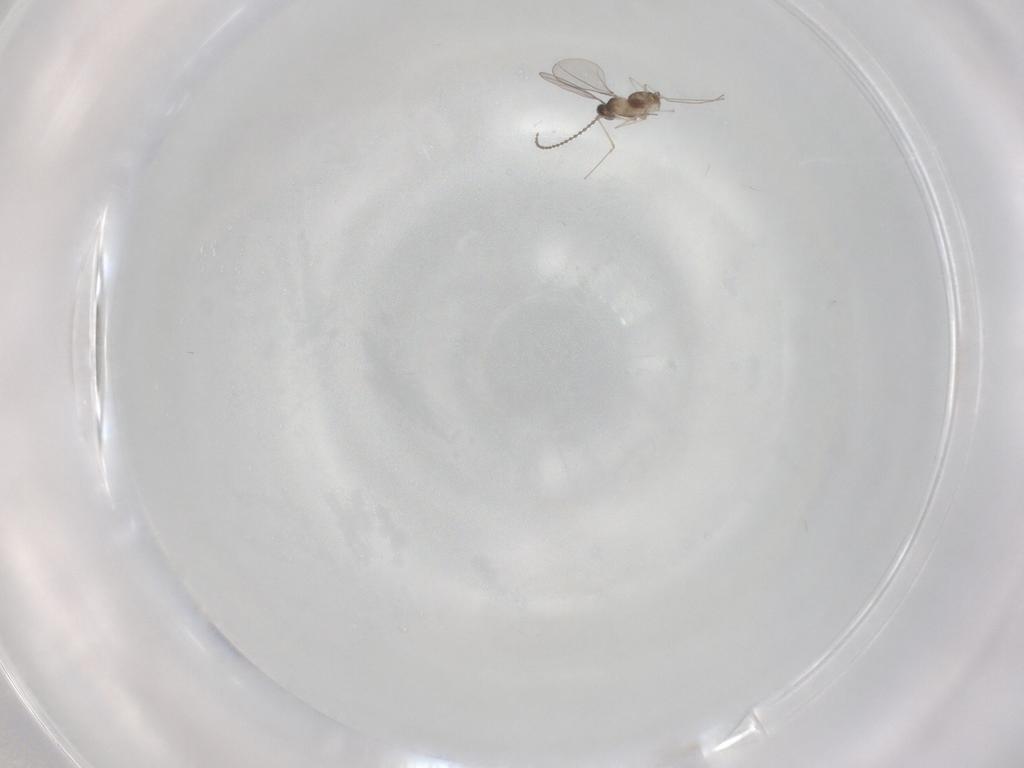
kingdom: Animalia
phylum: Arthropoda
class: Insecta
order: Diptera
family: Cecidomyiidae
